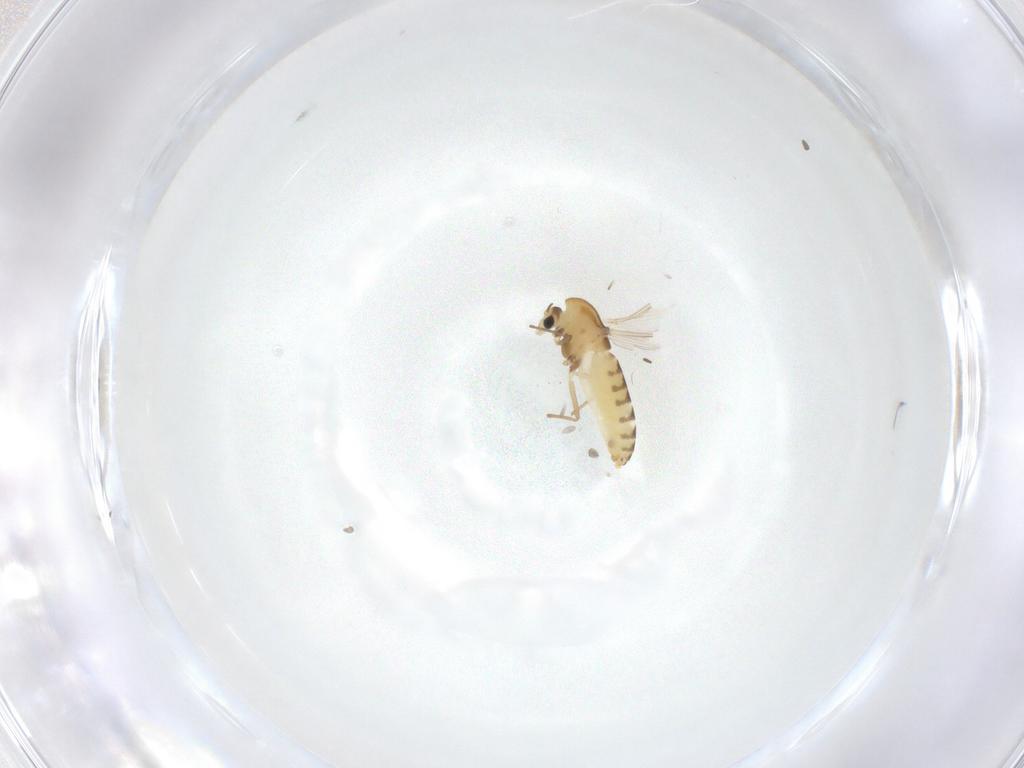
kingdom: Animalia
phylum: Arthropoda
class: Insecta
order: Diptera
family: Chironomidae
